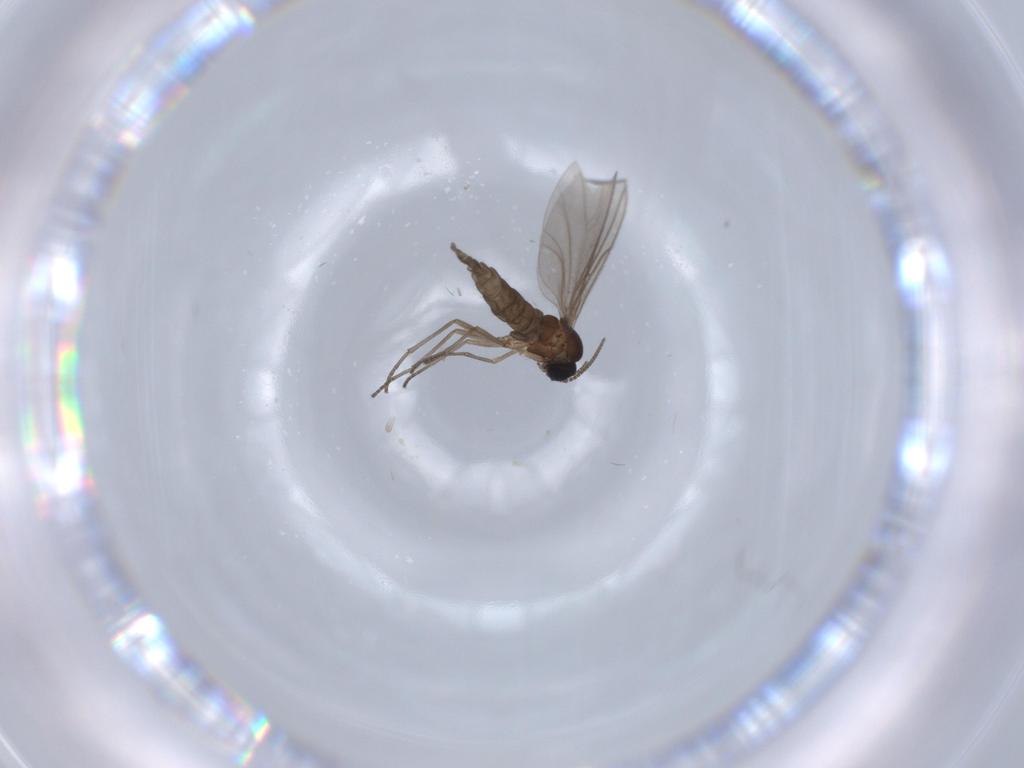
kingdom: Animalia
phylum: Arthropoda
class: Insecta
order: Diptera
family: Sciaridae
